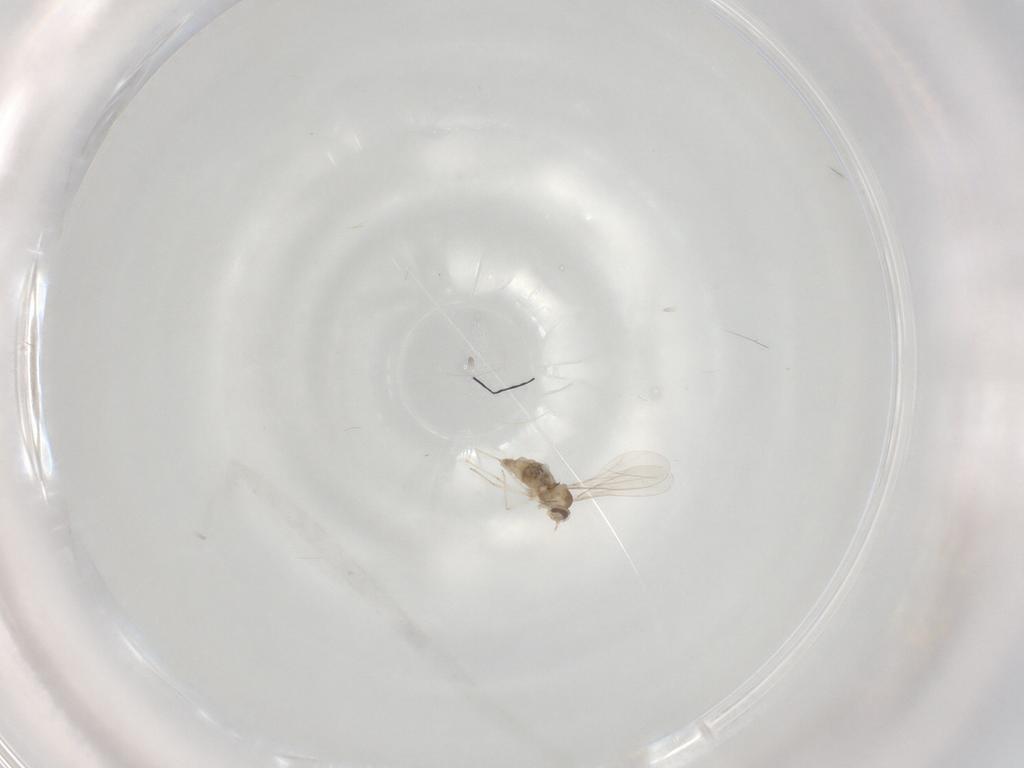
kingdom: Animalia
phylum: Arthropoda
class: Insecta
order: Diptera
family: Cecidomyiidae
